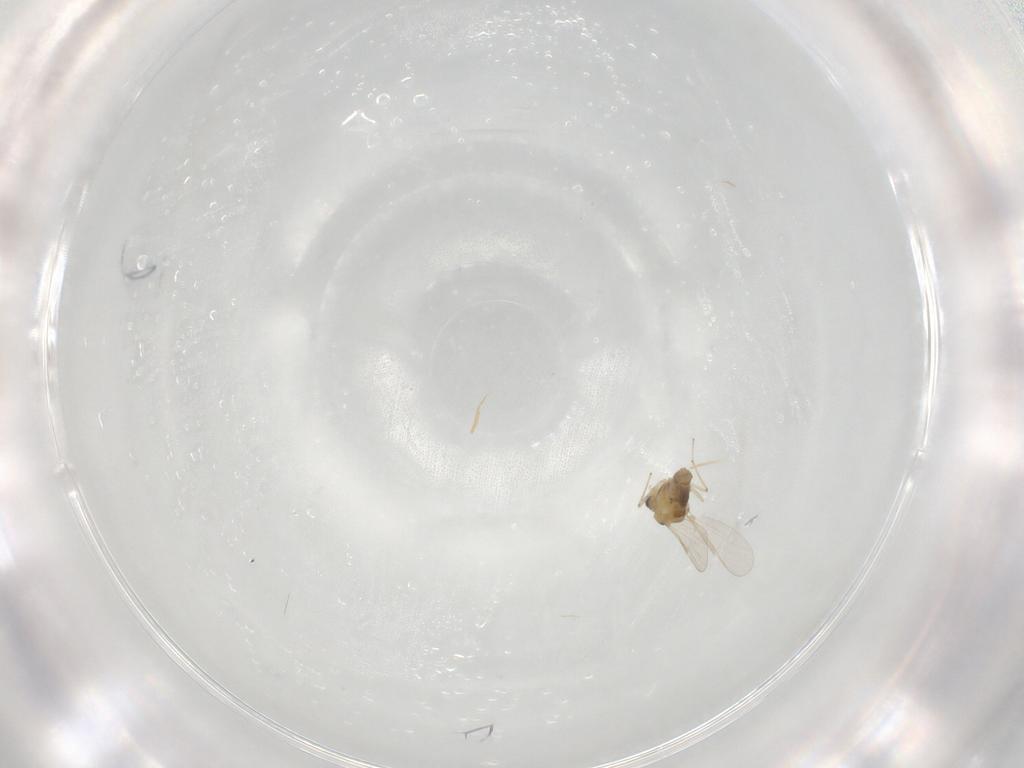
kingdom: Animalia
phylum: Arthropoda
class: Insecta
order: Diptera
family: Chironomidae
